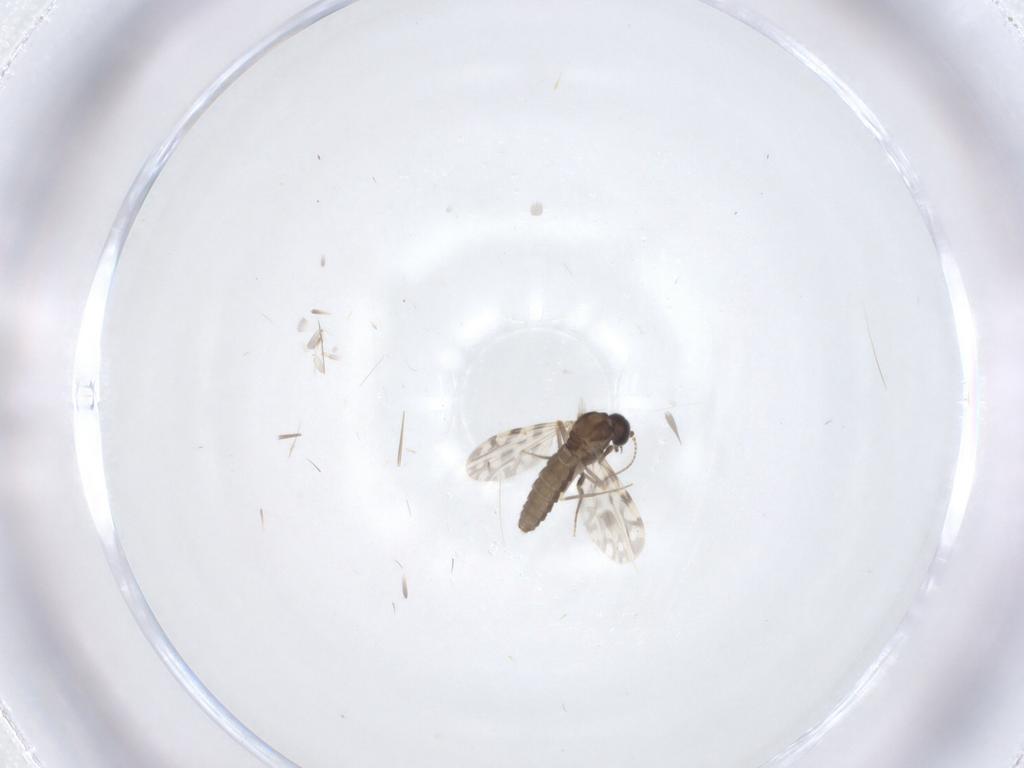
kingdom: Animalia
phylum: Arthropoda
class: Insecta
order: Diptera
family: Ceratopogonidae
